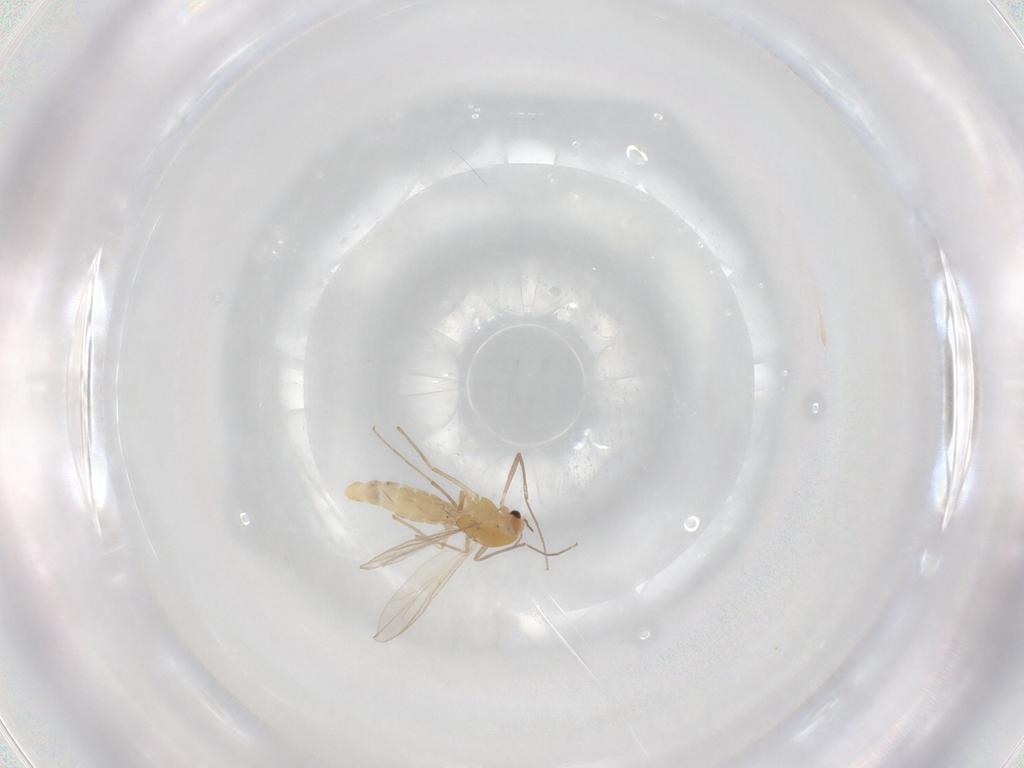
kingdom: Animalia
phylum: Arthropoda
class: Insecta
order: Diptera
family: Chironomidae
